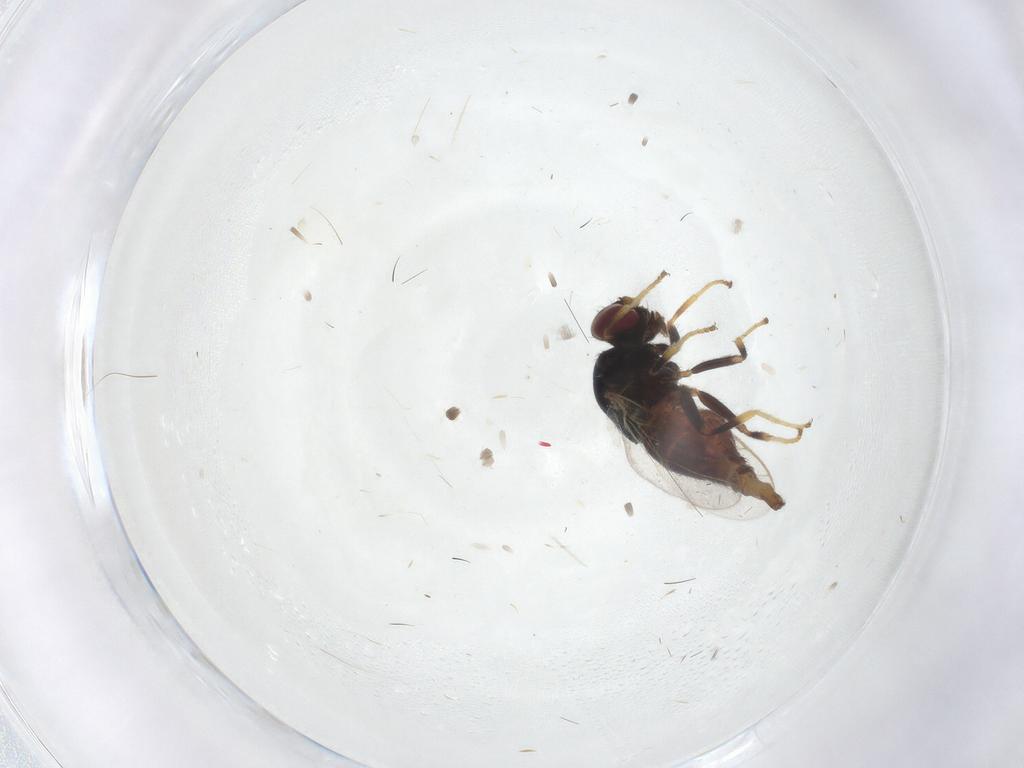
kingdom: Animalia
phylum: Arthropoda
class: Insecta
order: Diptera
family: Chloropidae
